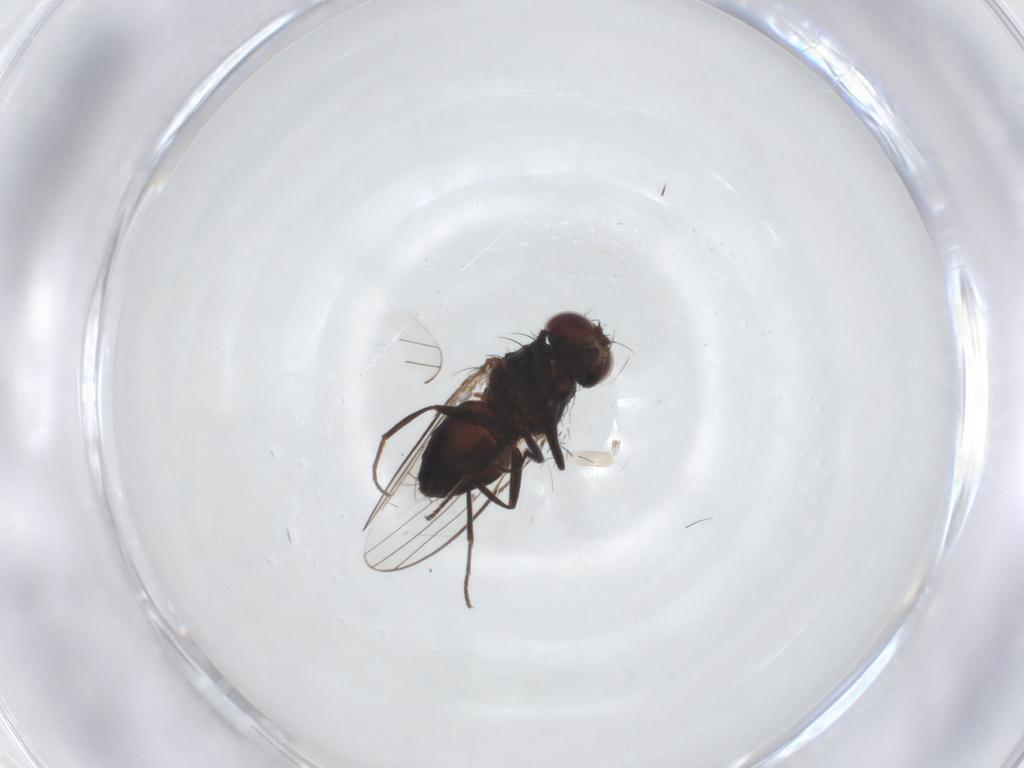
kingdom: Animalia
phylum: Arthropoda
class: Insecta
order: Diptera
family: Carnidae
